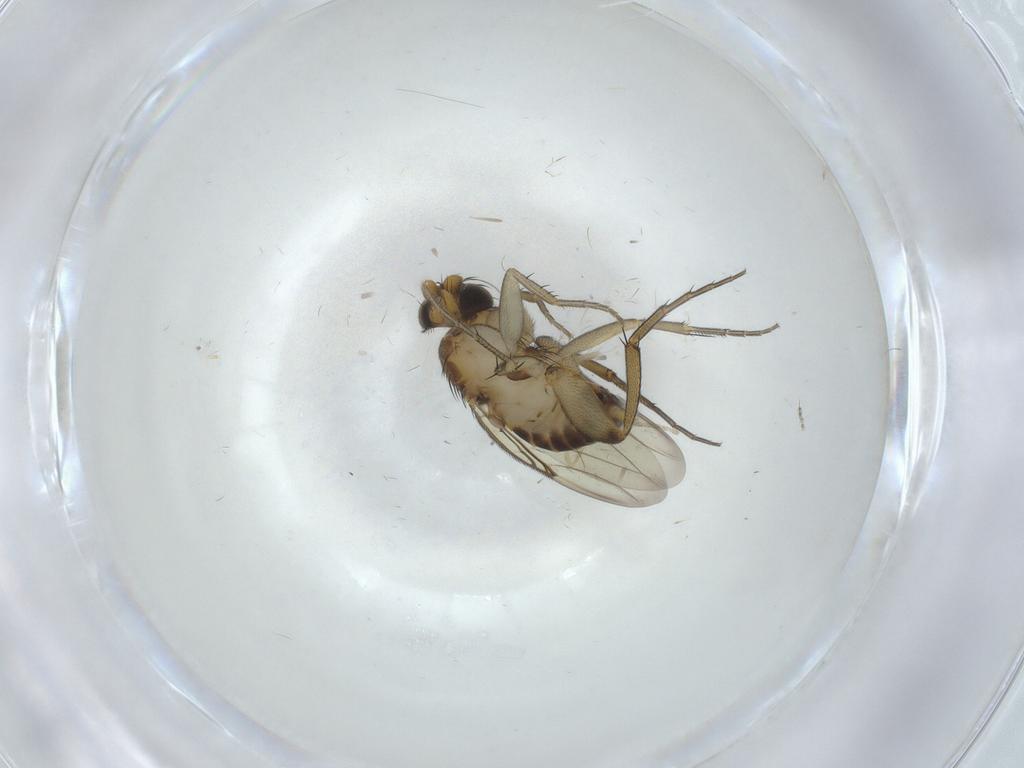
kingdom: Animalia
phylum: Arthropoda
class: Insecta
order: Diptera
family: Phoridae
